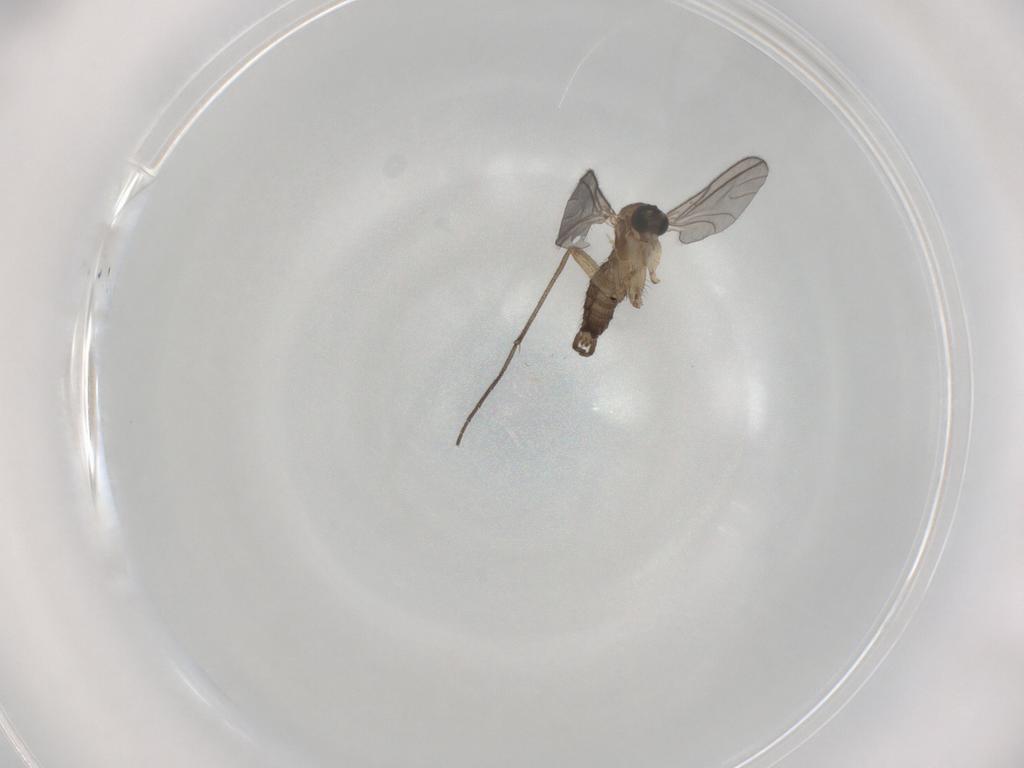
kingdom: Animalia
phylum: Arthropoda
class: Insecta
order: Diptera
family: Sciaridae
